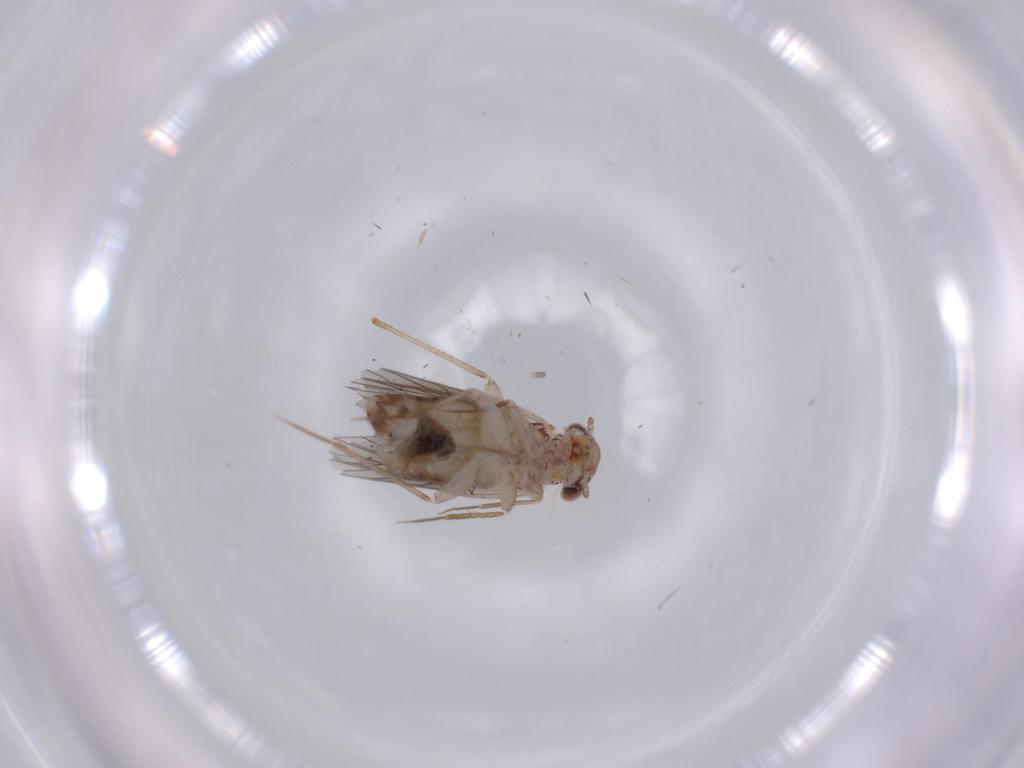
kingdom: Animalia
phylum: Arthropoda
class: Insecta
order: Psocodea
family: Lepidopsocidae
